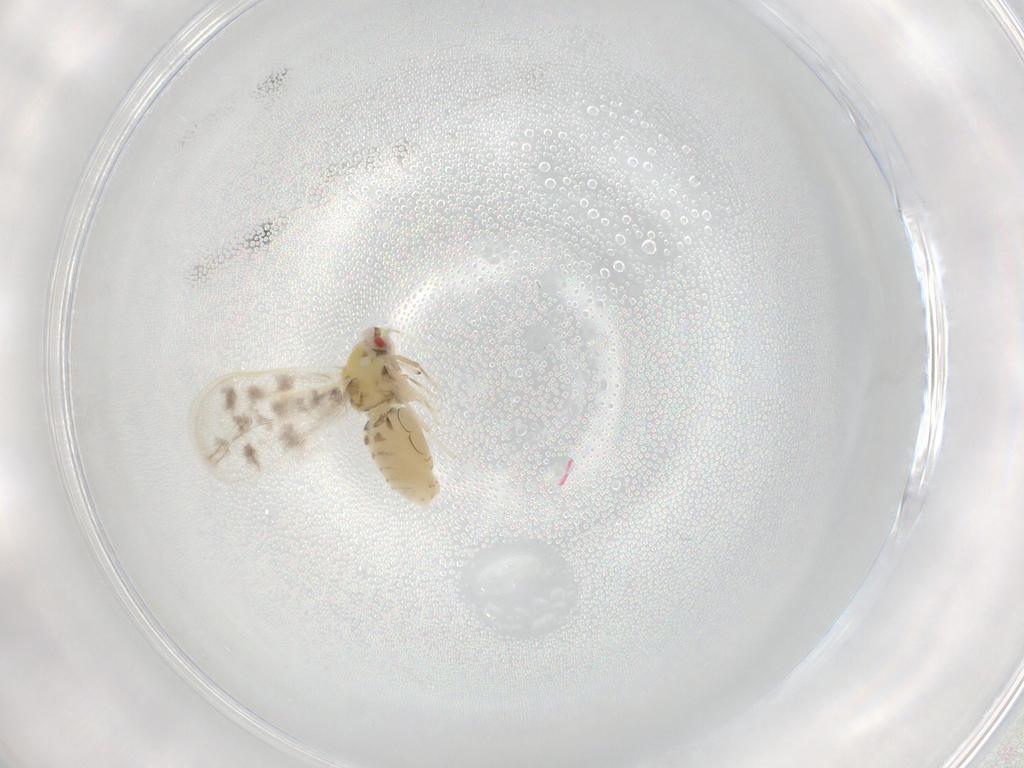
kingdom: Animalia
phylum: Arthropoda
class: Insecta
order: Hemiptera
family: Aleyrodidae
